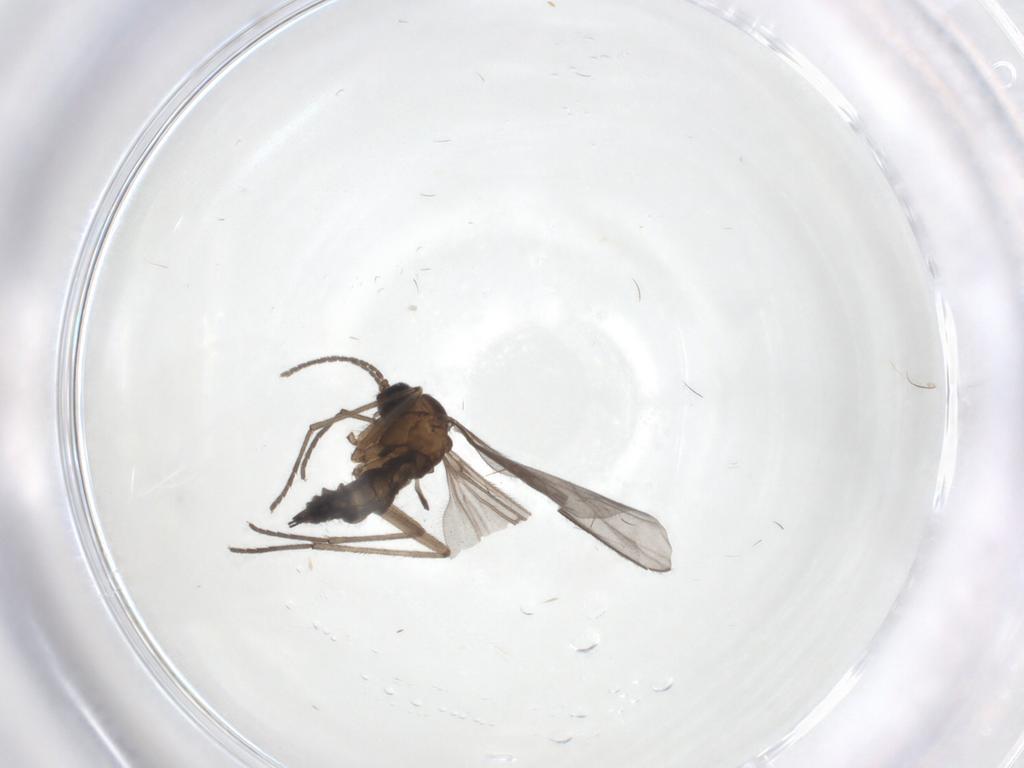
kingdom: Animalia
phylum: Arthropoda
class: Insecta
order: Diptera
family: Sciaridae
